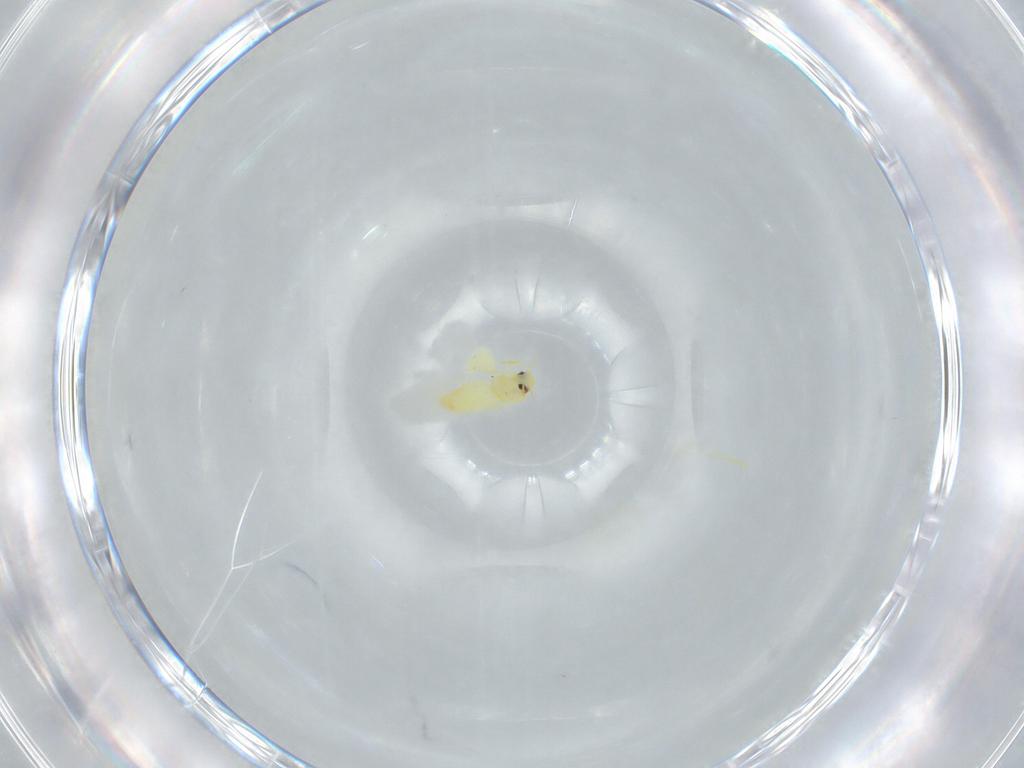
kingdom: Animalia
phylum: Arthropoda
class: Insecta
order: Hemiptera
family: Aleyrodidae
